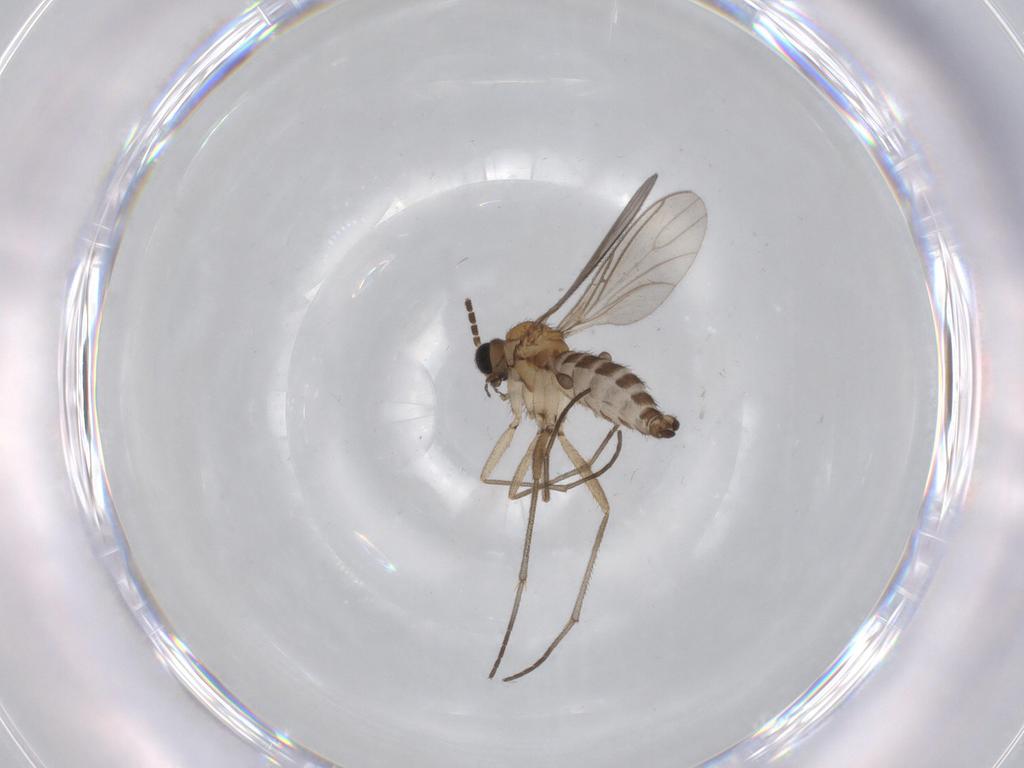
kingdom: Animalia
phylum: Arthropoda
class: Insecta
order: Diptera
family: Sciaridae
